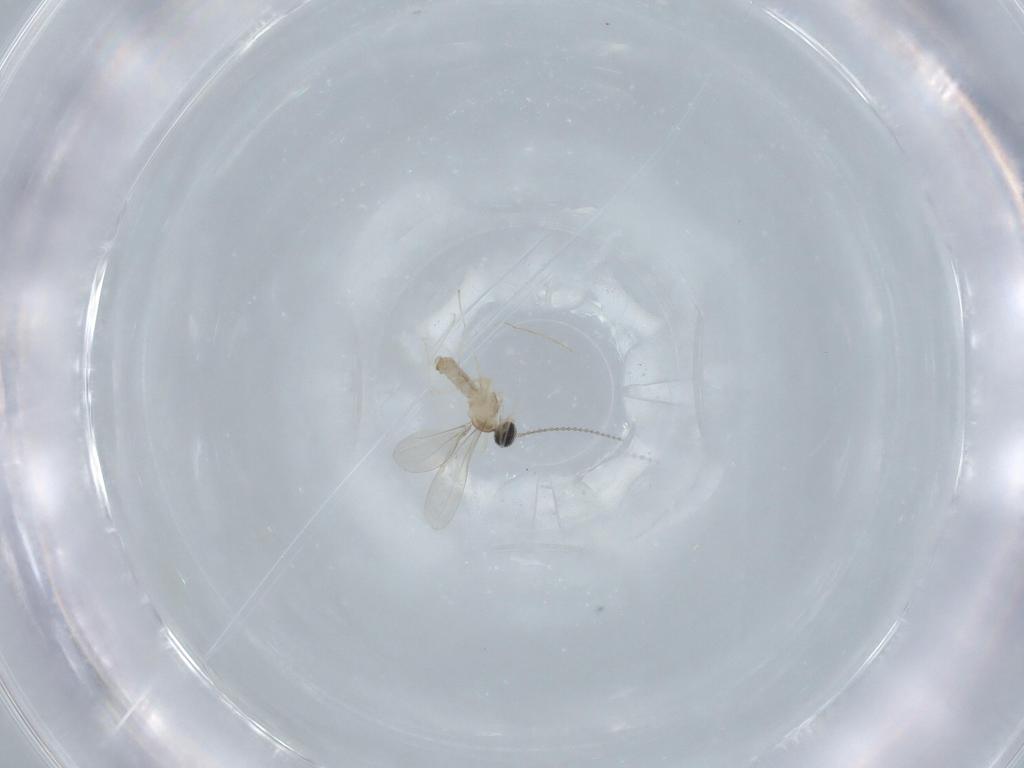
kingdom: Animalia
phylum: Arthropoda
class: Insecta
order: Diptera
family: Cecidomyiidae
